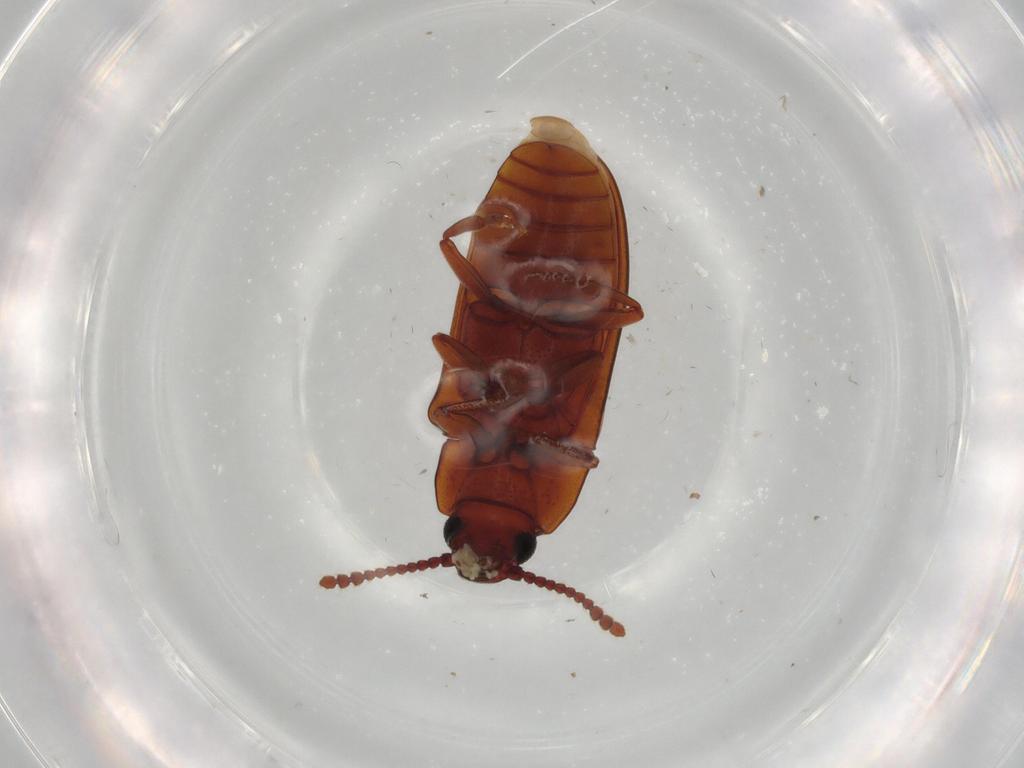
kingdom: Animalia
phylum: Arthropoda
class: Insecta
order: Coleoptera
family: Erotylidae
